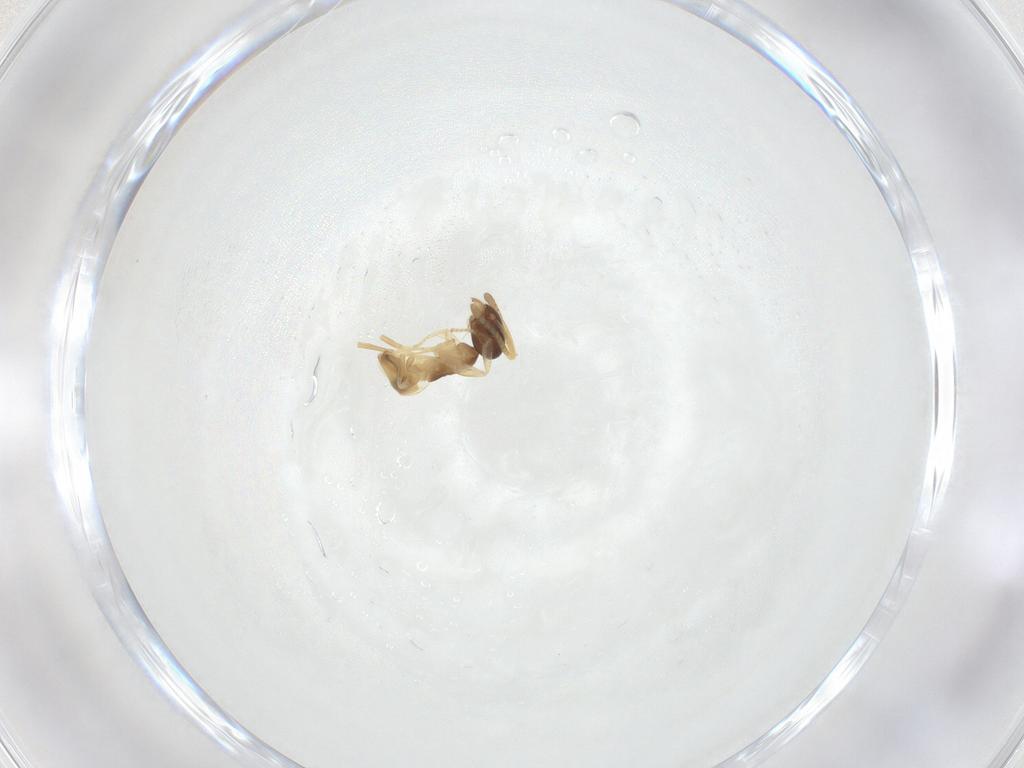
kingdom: Animalia
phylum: Arthropoda
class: Insecta
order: Hymenoptera
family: Formicidae
